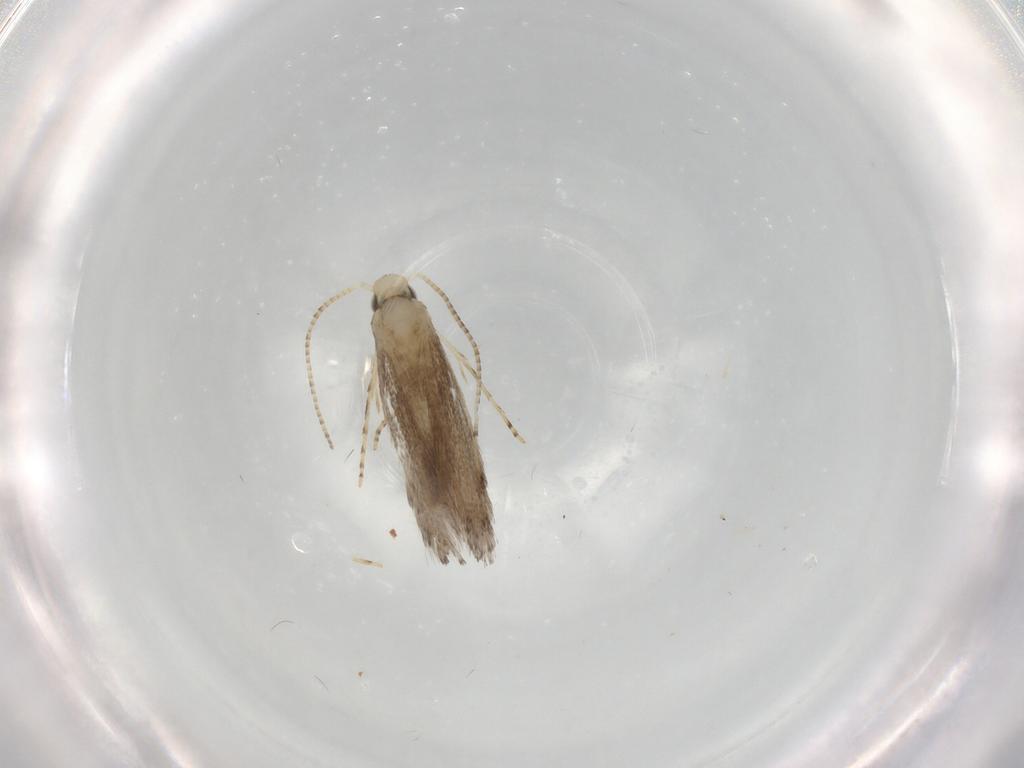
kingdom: Animalia
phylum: Arthropoda
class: Insecta
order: Lepidoptera
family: Gracillariidae
